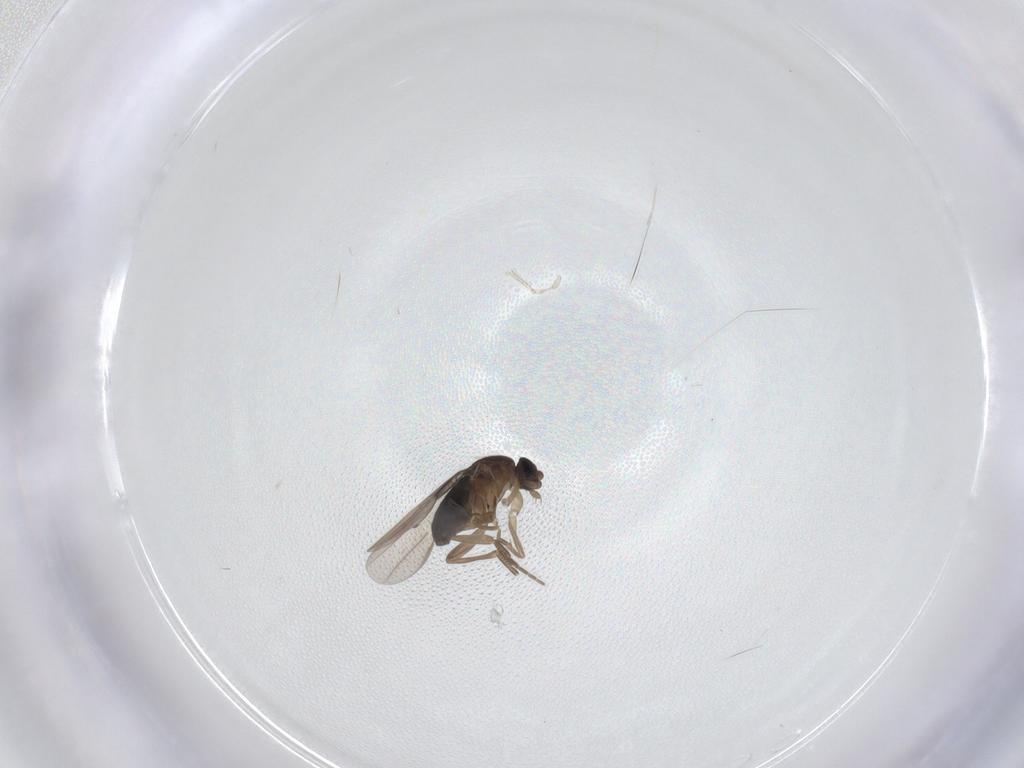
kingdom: Animalia
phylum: Arthropoda
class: Insecta
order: Diptera
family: Phoridae
